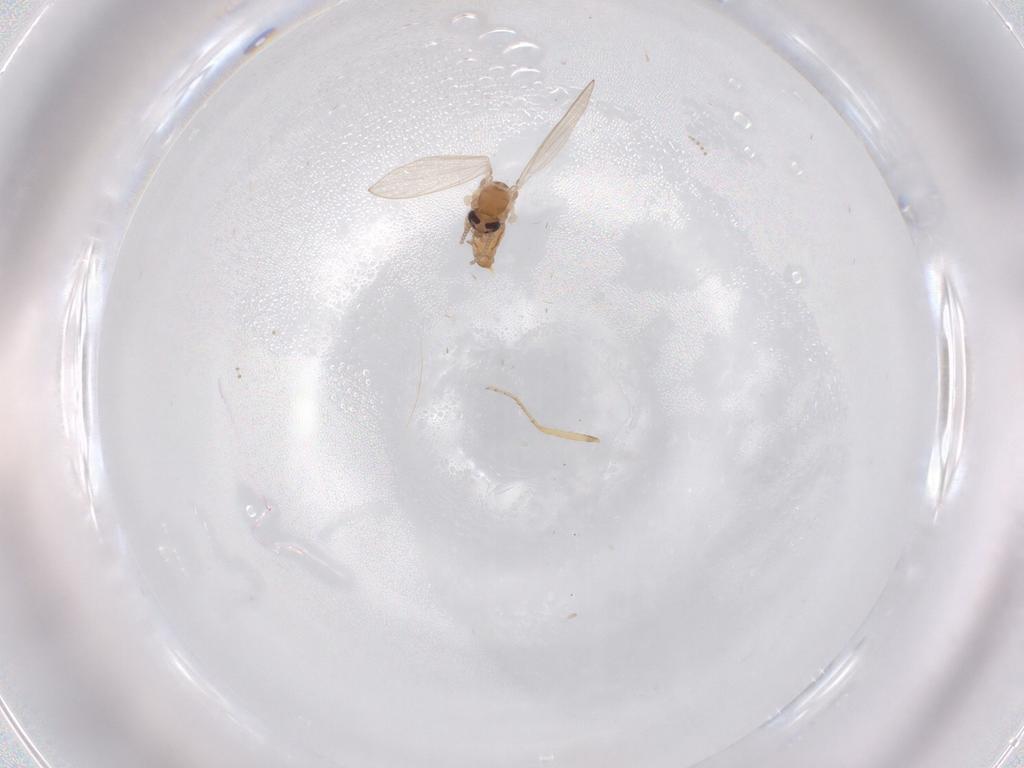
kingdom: Animalia
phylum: Arthropoda
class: Insecta
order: Diptera
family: Psychodidae
